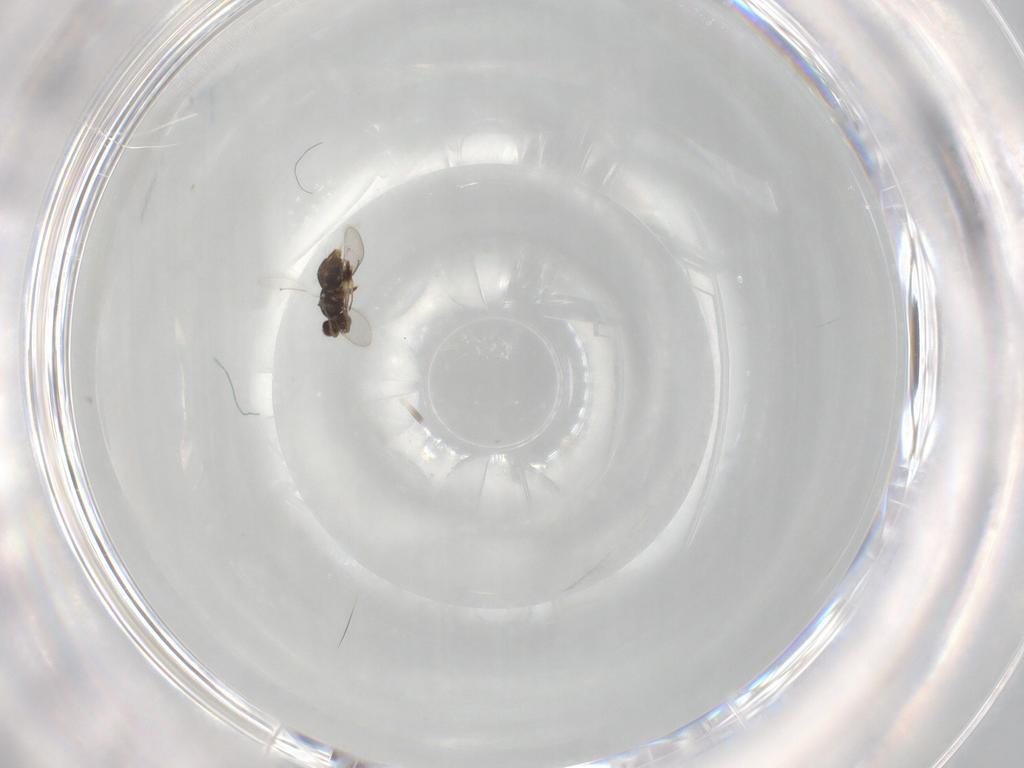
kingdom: Animalia
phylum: Arthropoda
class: Insecta
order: Hymenoptera
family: Aphelinidae
